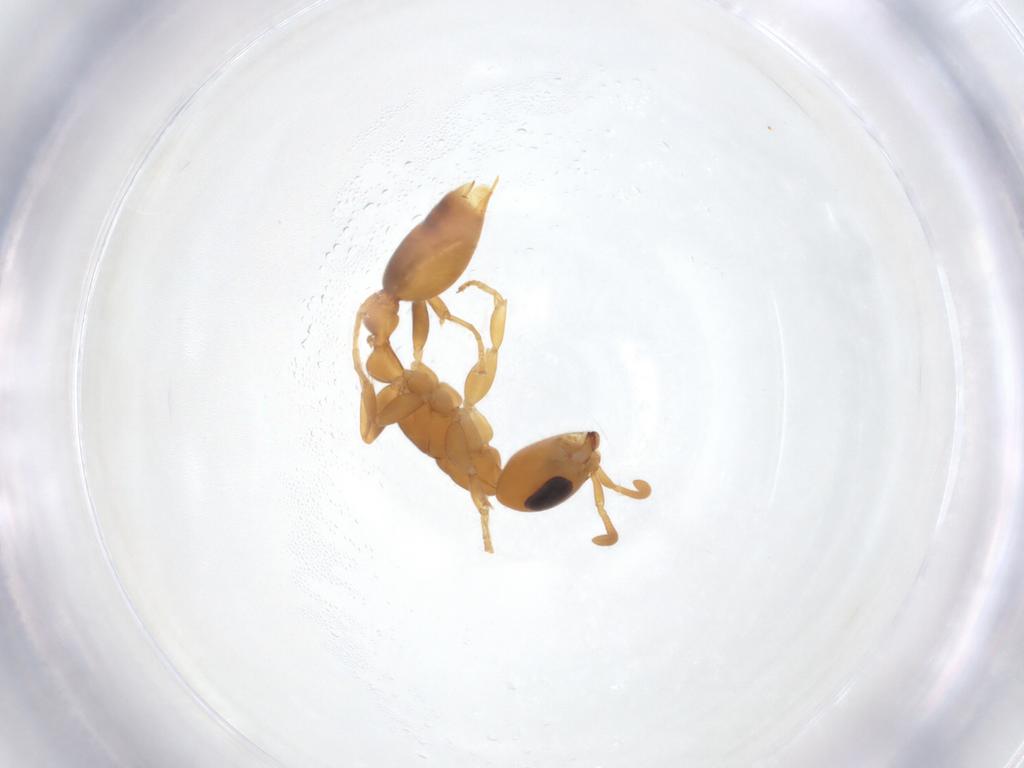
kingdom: Animalia
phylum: Arthropoda
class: Insecta
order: Hymenoptera
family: Formicidae
